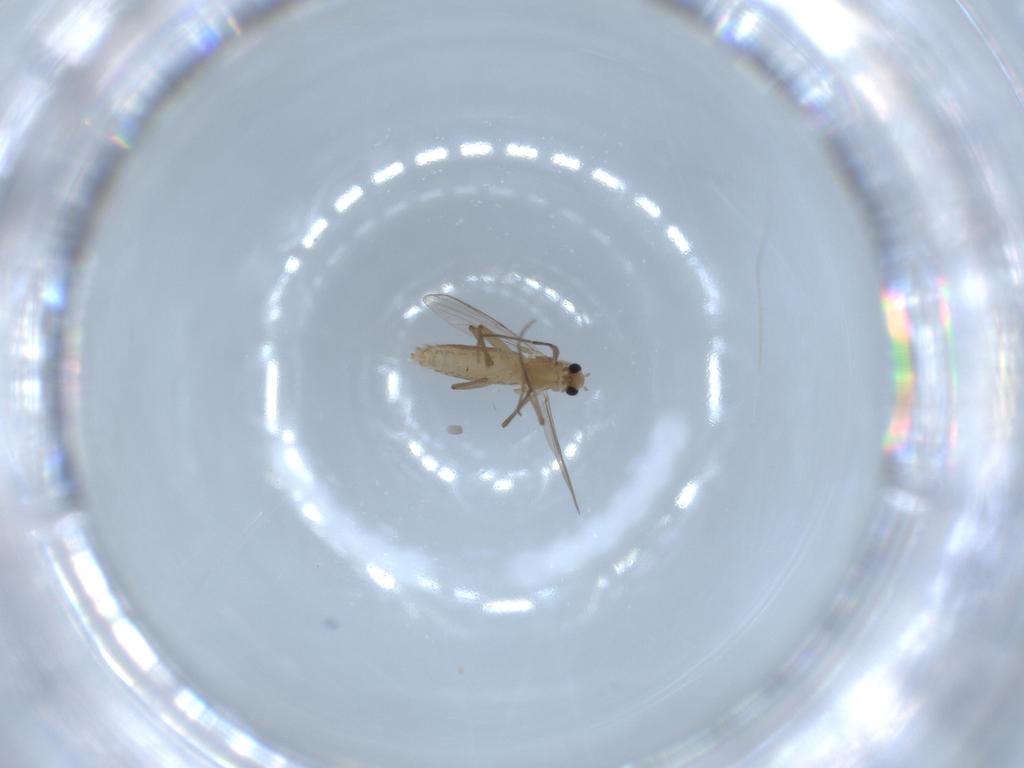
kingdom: Animalia
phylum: Arthropoda
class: Insecta
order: Diptera
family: Chironomidae
